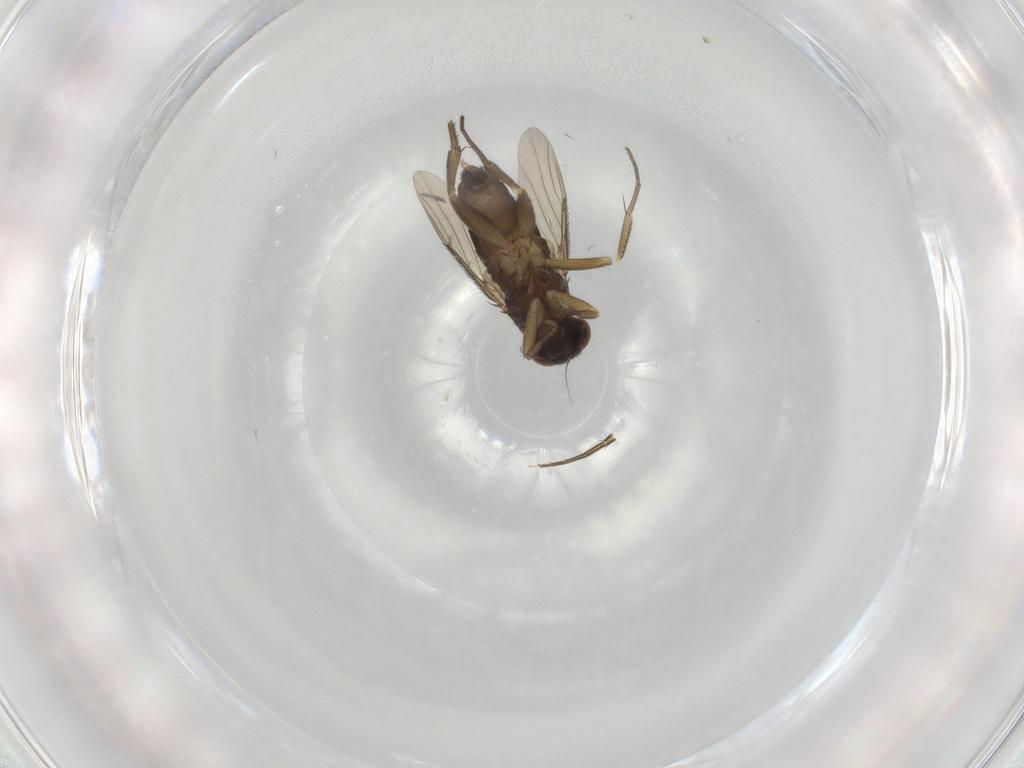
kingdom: Animalia
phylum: Arthropoda
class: Insecta
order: Diptera
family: Phoridae
